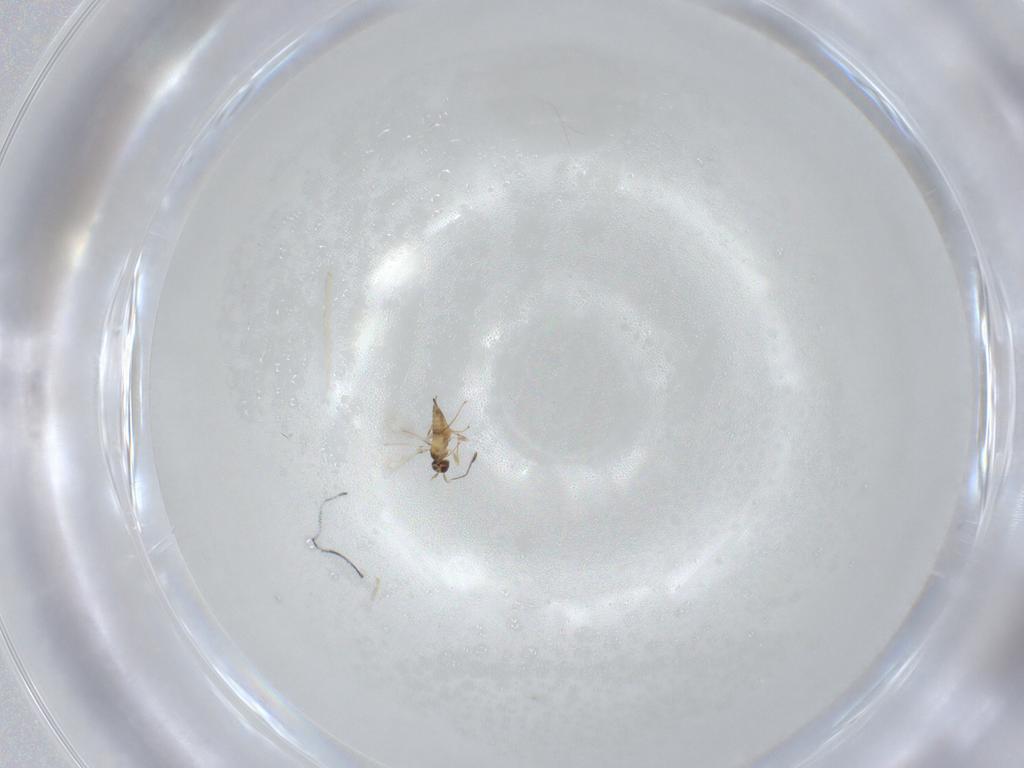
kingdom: Animalia
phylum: Arthropoda
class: Insecta
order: Hymenoptera
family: Mymaridae
